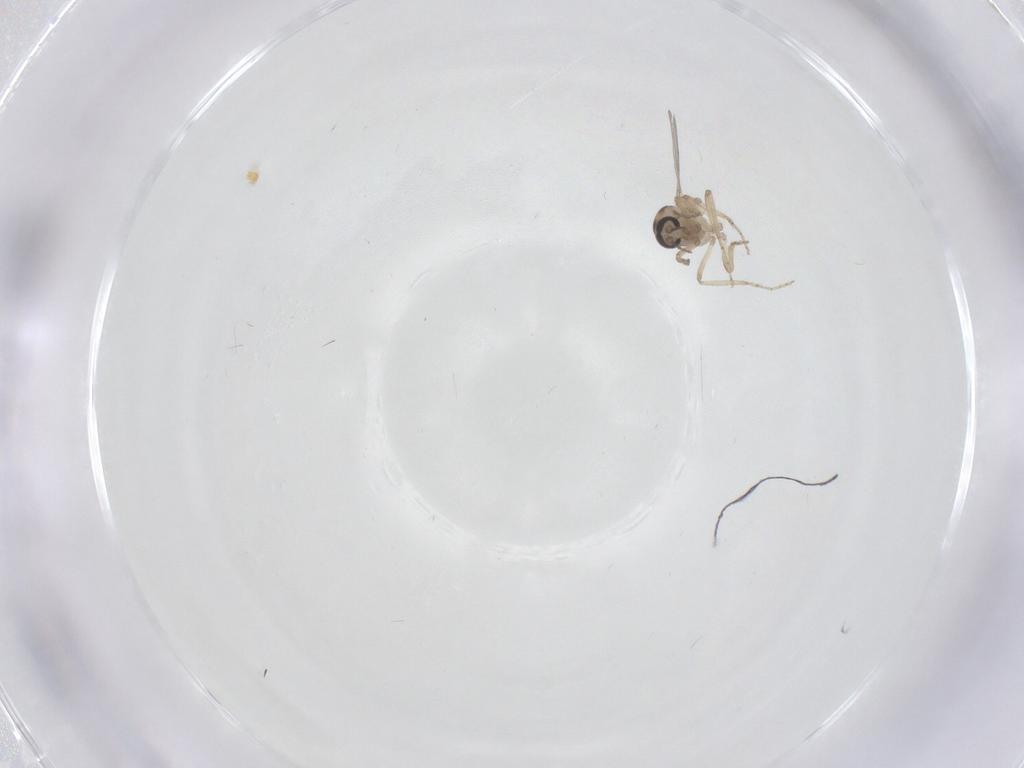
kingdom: Animalia
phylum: Arthropoda
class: Insecta
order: Diptera
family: Ceratopogonidae
